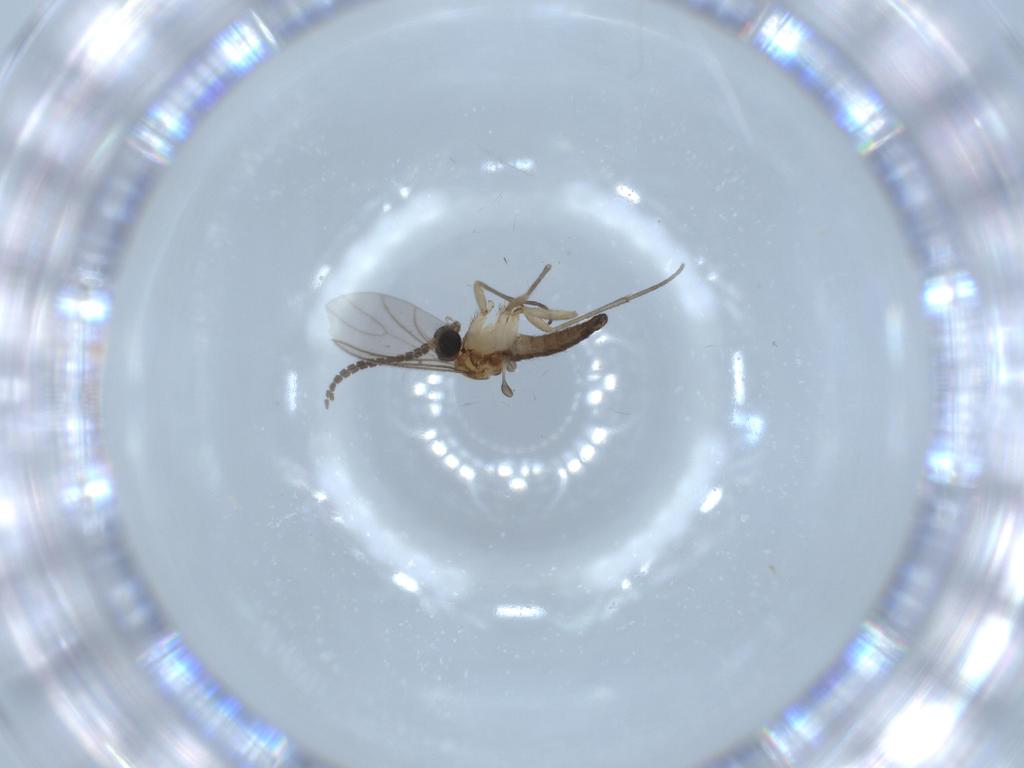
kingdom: Animalia
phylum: Arthropoda
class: Insecta
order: Diptera
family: Sciaridae
